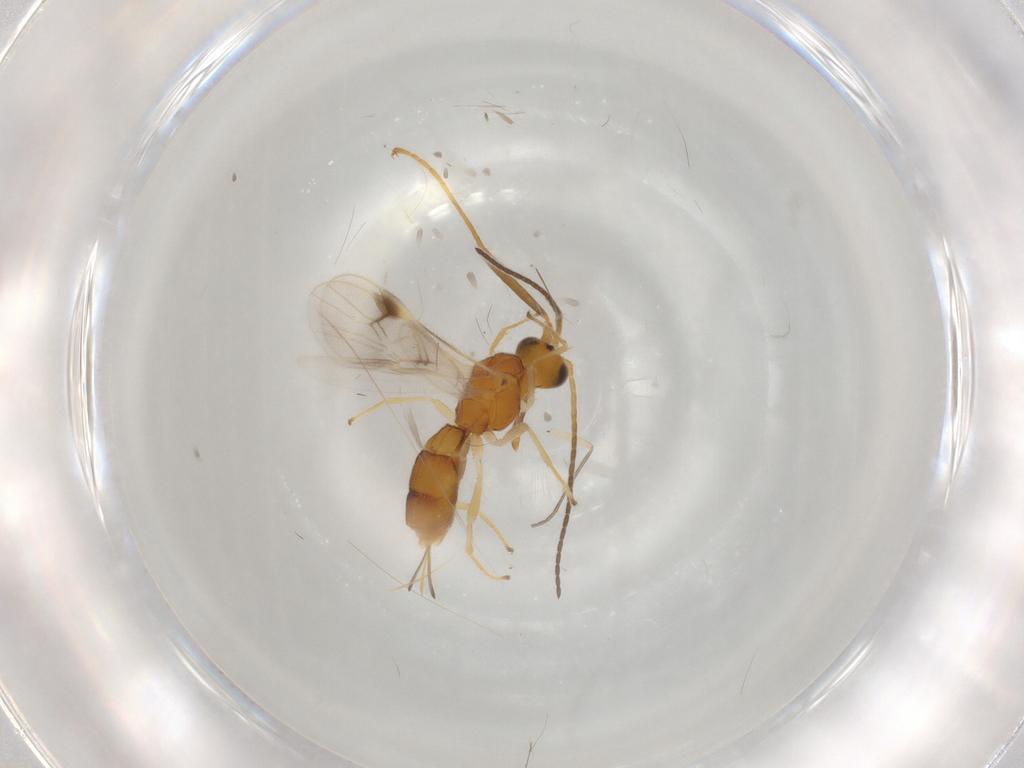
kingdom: Animalia
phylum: Arthropoda
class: Insecta
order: Hymenoptera
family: Braconidae
